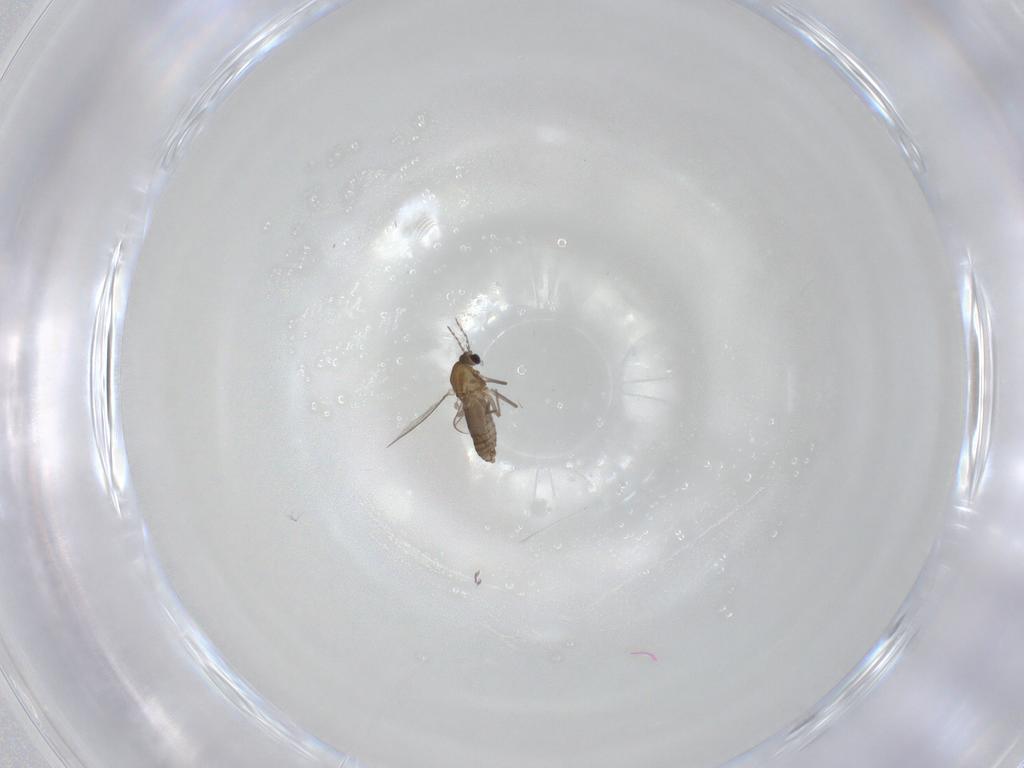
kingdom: Animalia
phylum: Arthropoda
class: Insecta
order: Diptera
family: Chironomidae
